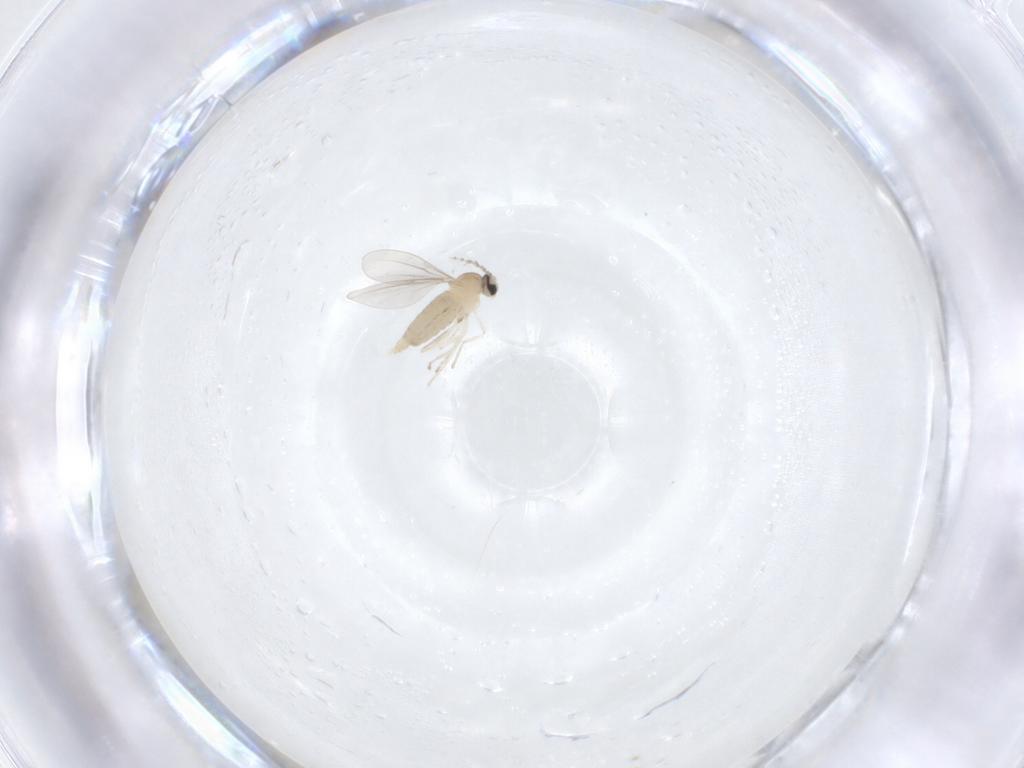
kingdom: Animalia
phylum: Arthropoda
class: Insecta
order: Diptera
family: Cecidomyiidae
